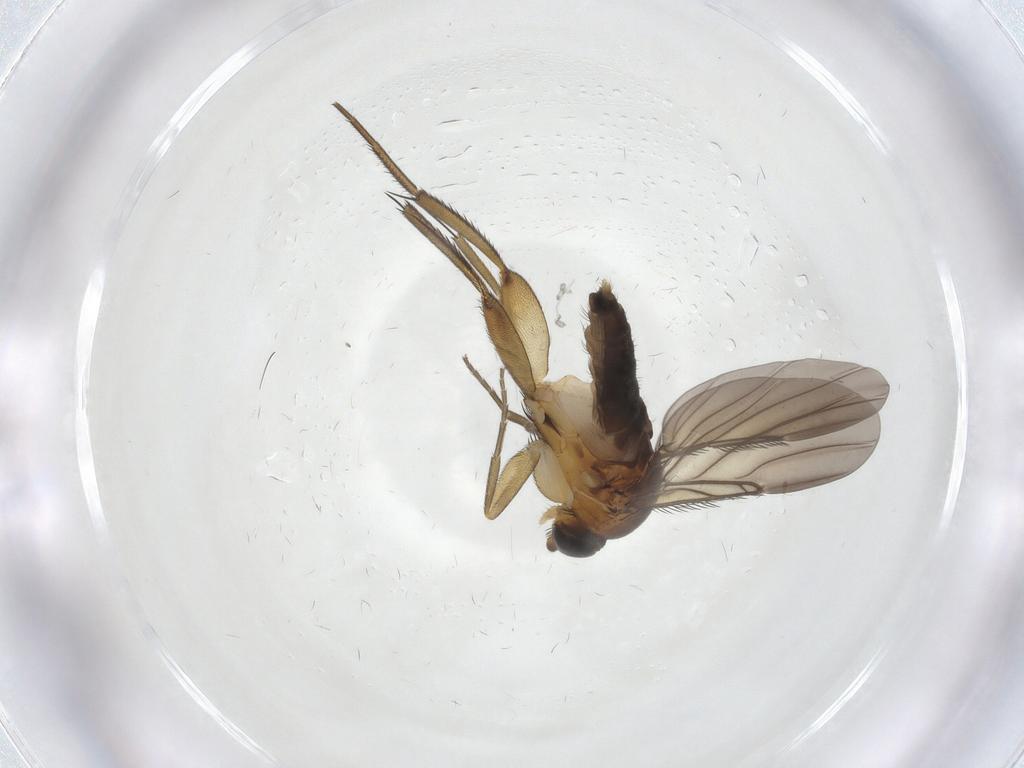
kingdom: Animalia
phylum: Arthropoda
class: Insecta
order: Diptera
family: Phoridae
